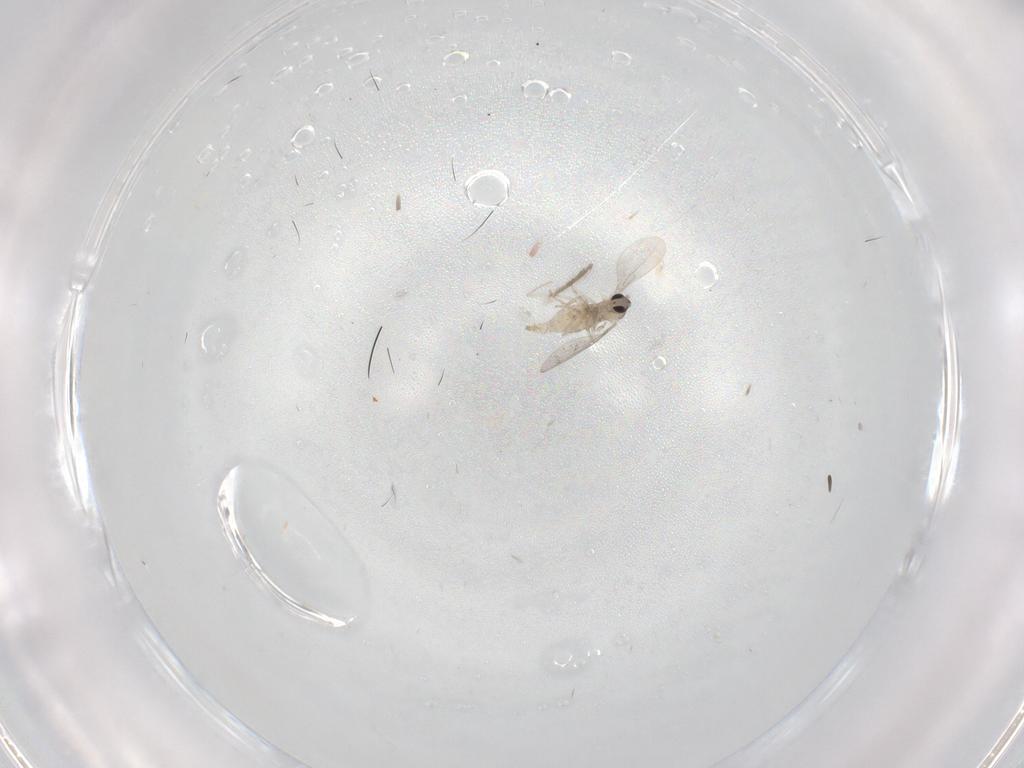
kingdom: Animalia
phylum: Arthropoda
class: Insecta
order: Diptera
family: Cecidomyiidae
